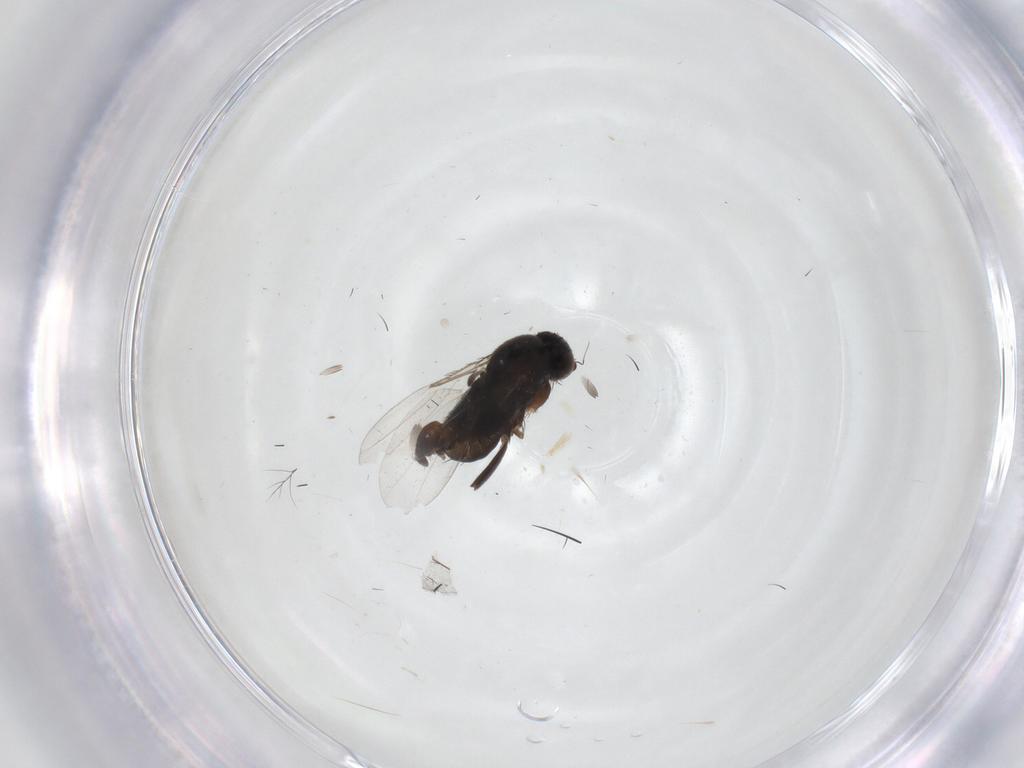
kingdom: Animalia
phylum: Arthropoda
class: Insecta
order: Diptera
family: Phoridae
